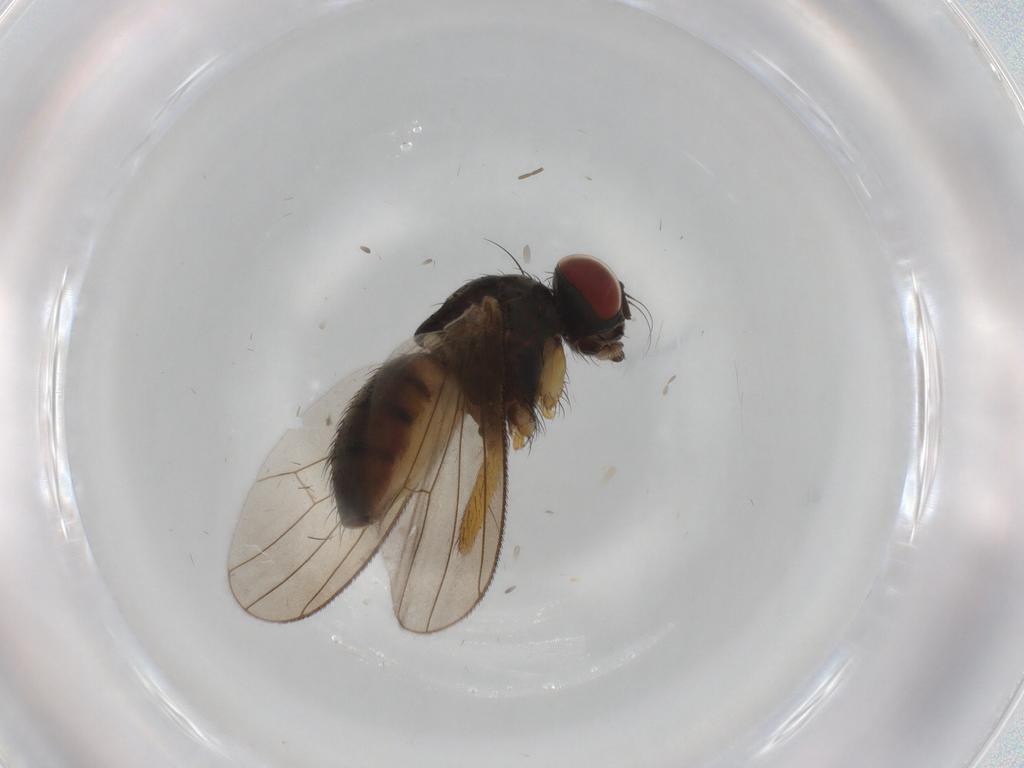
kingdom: Animalia
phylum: Arthropoda
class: Insecta
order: Diptera
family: Muscidae
